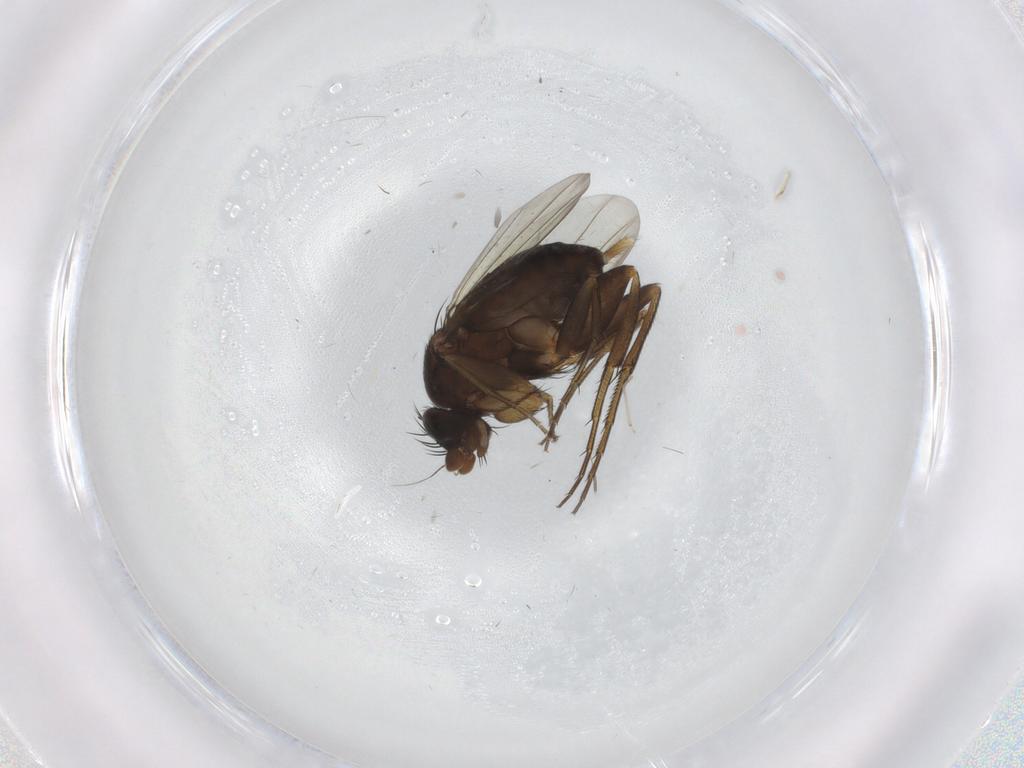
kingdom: Animalia
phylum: Arthropoda
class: Insecta
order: Diptera
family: Phoridae
